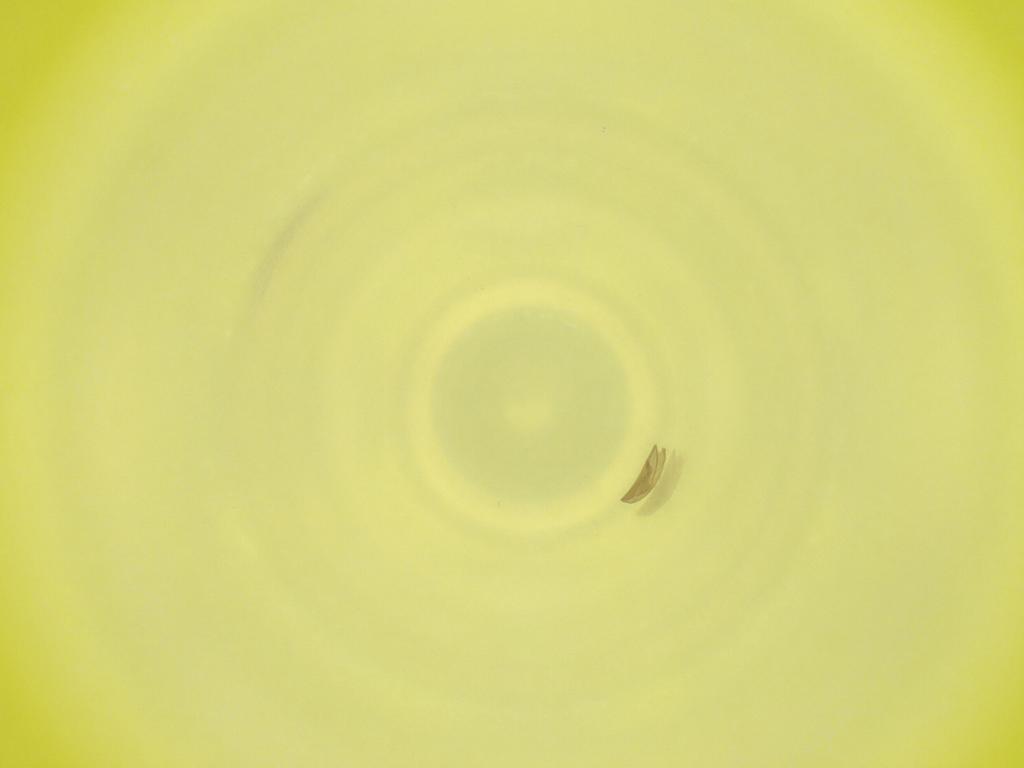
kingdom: Animalia
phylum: Arthropoda
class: Insecta
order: Diptera
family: Cecidomyiidae
